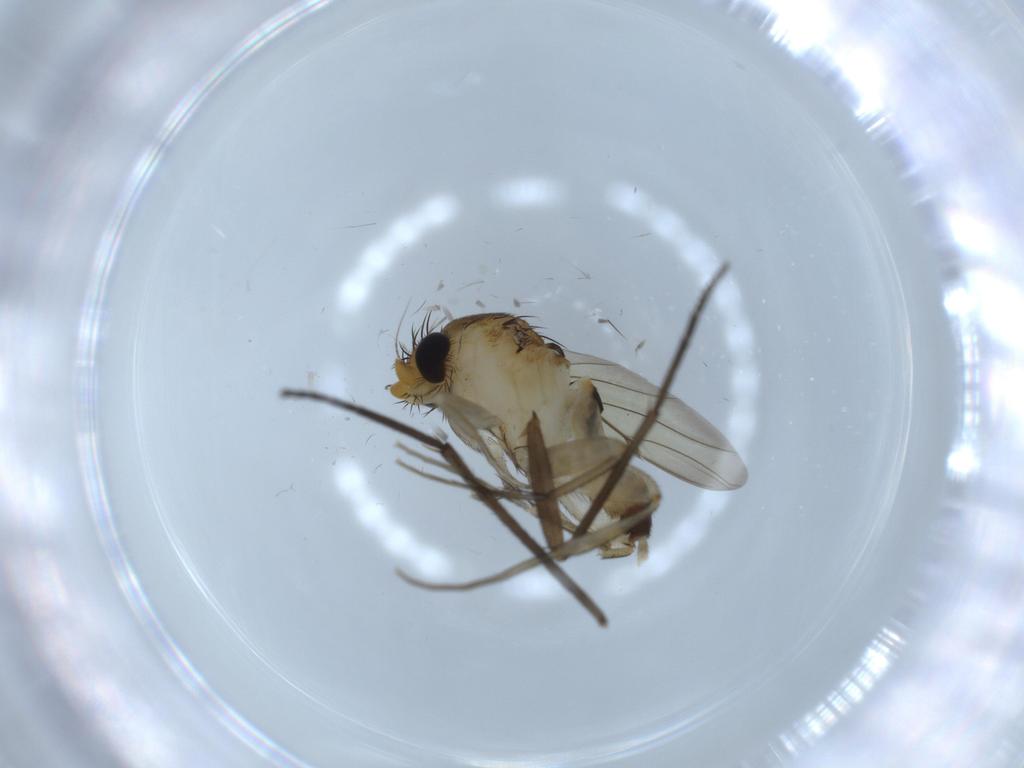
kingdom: Animalia
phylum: Arthropoda
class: Insecta
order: Diptera
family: Phoridae
